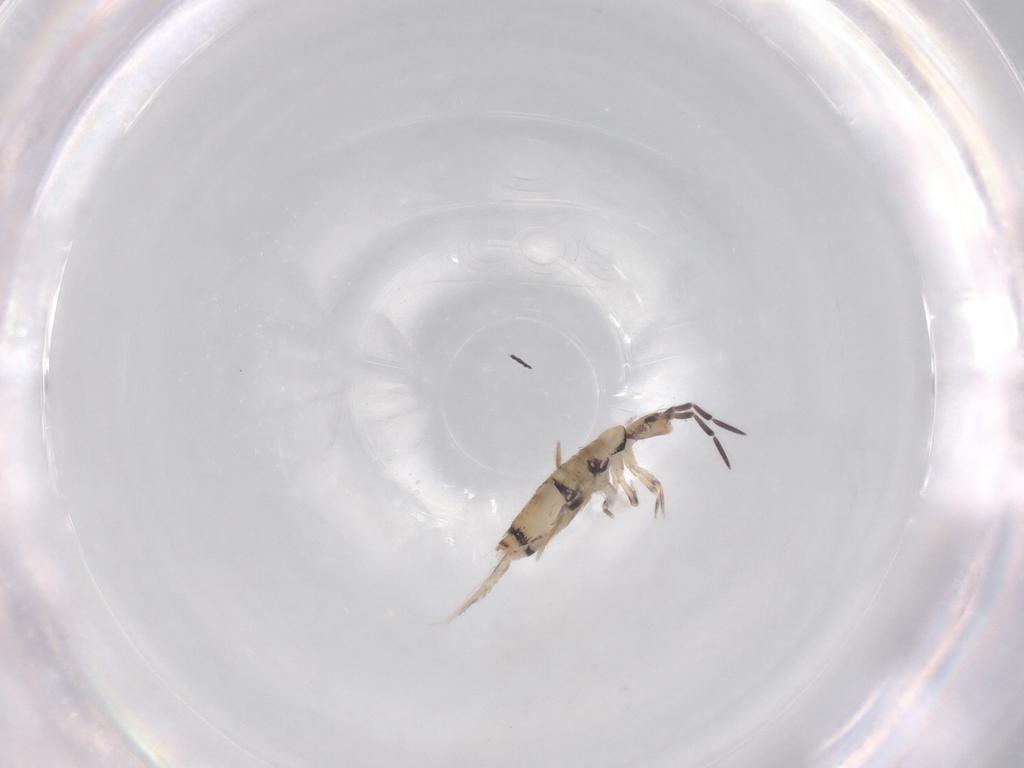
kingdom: Animalia
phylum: Arthropoda
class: Collembola
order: Entomobryomorpha
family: Entomobryidae
